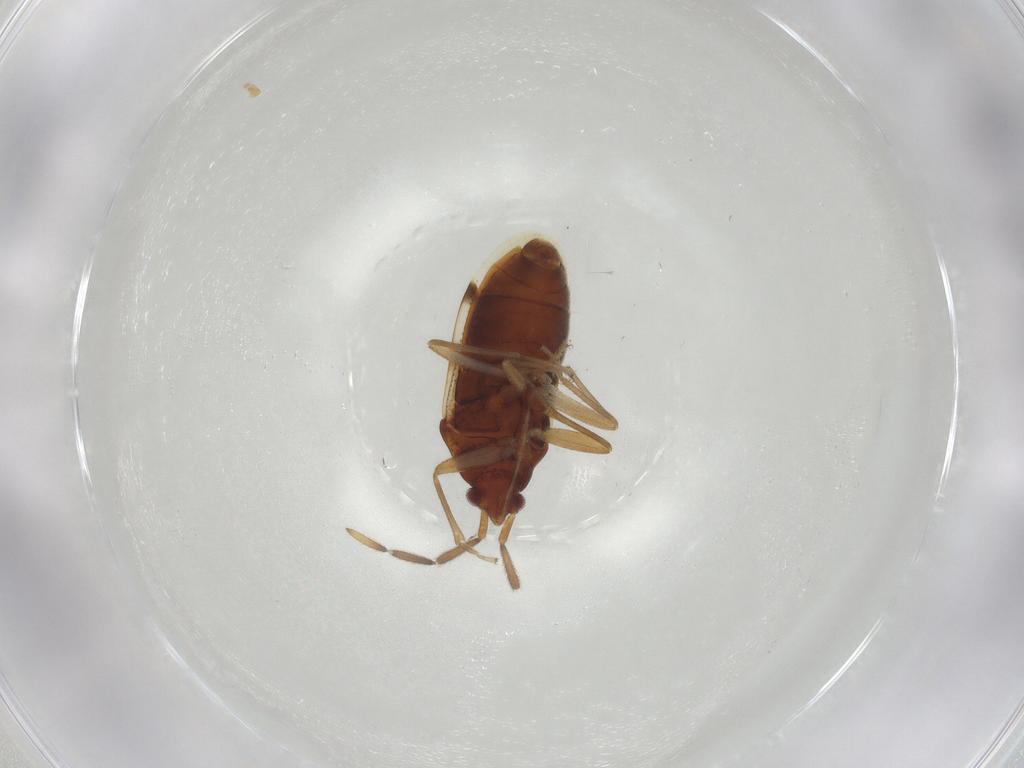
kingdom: Animalia
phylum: Arthropoda
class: Insecta
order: Hemiptera
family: Rhyparochromidae
